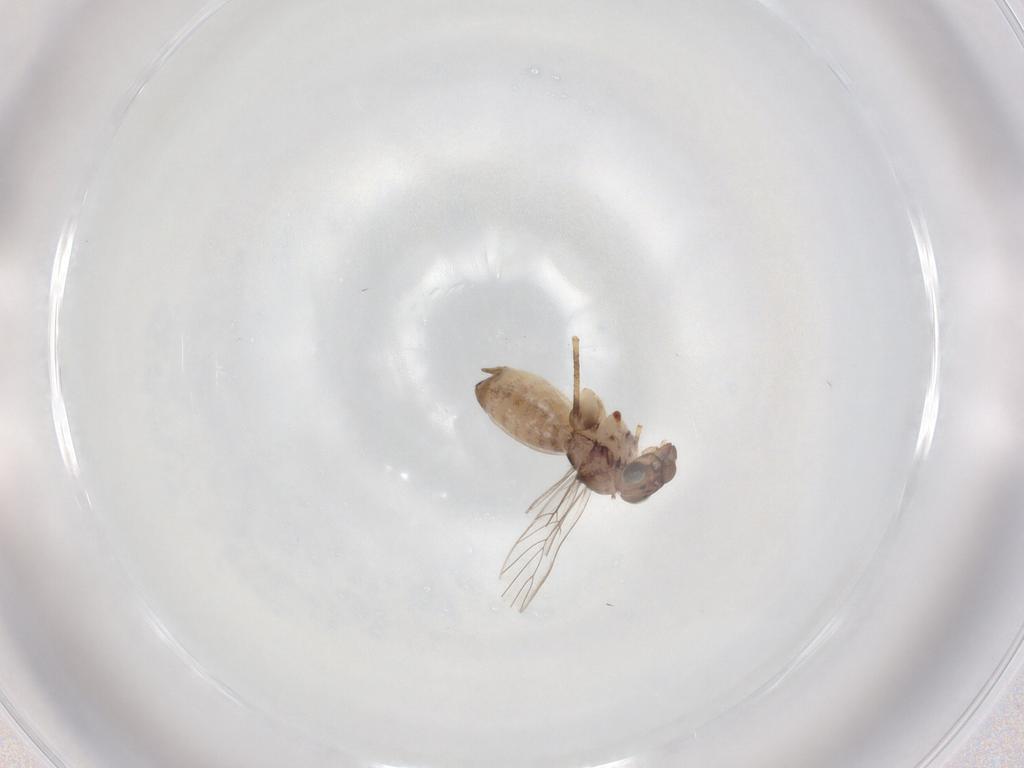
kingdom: Animalia
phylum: Arthropoda
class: Insecta
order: Psocodea
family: Lepidopsocidae
